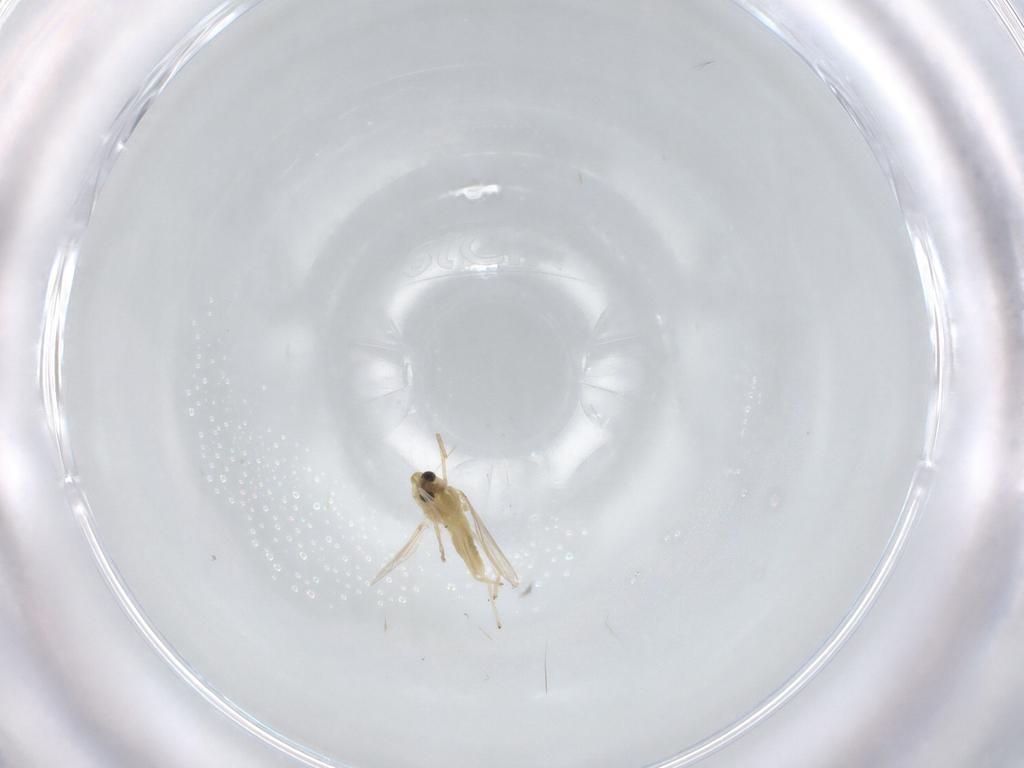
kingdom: Animalia
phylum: Arthropoda
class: Insecta
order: Diptera
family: Chironomidae
